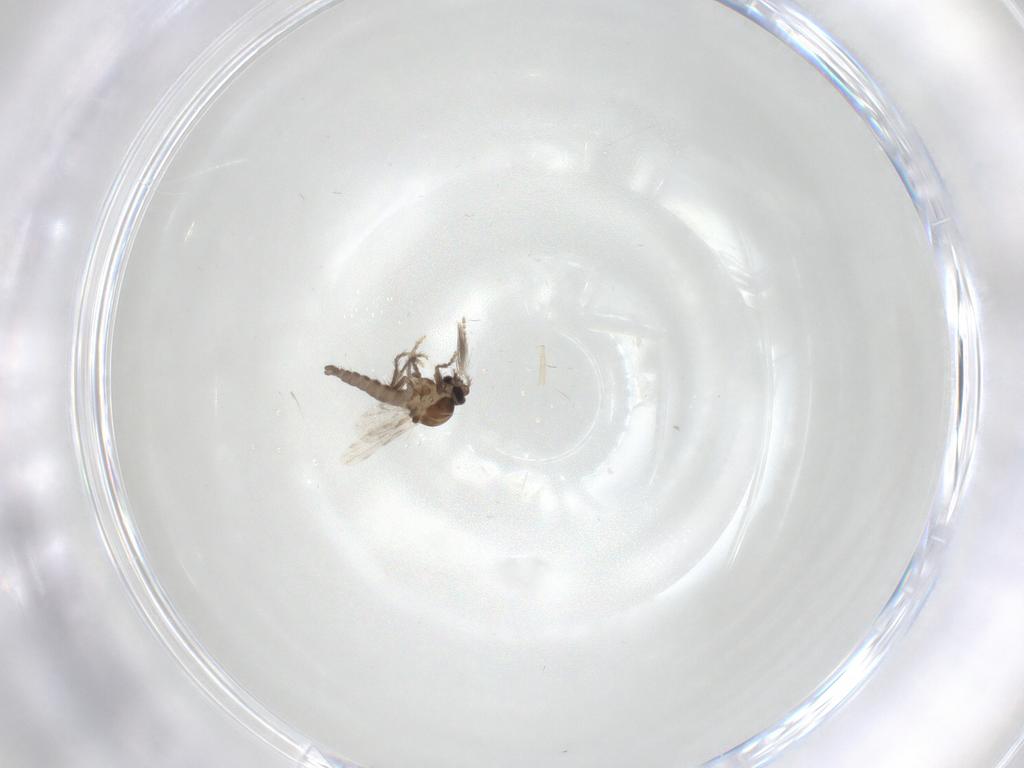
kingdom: Animalia
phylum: Arthropoda
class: Insecta
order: Diptera
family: Ceratopogonidae
